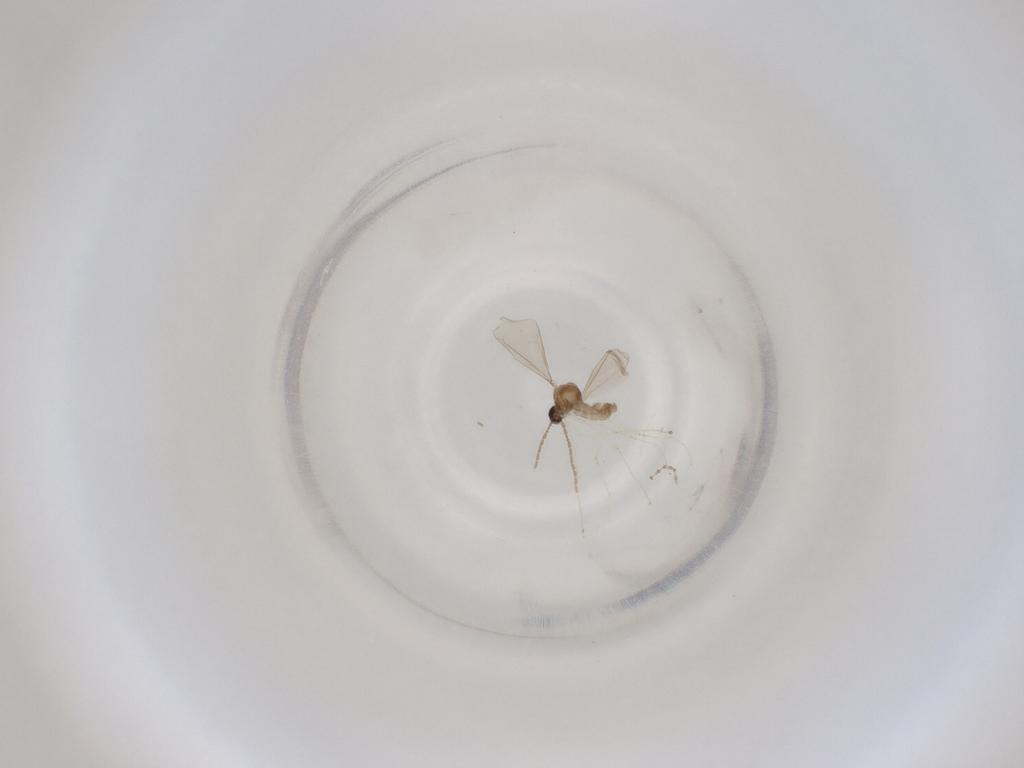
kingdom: Animalia
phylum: Arthropoda
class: Insecta
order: Diptera
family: Cecidomyiidae
